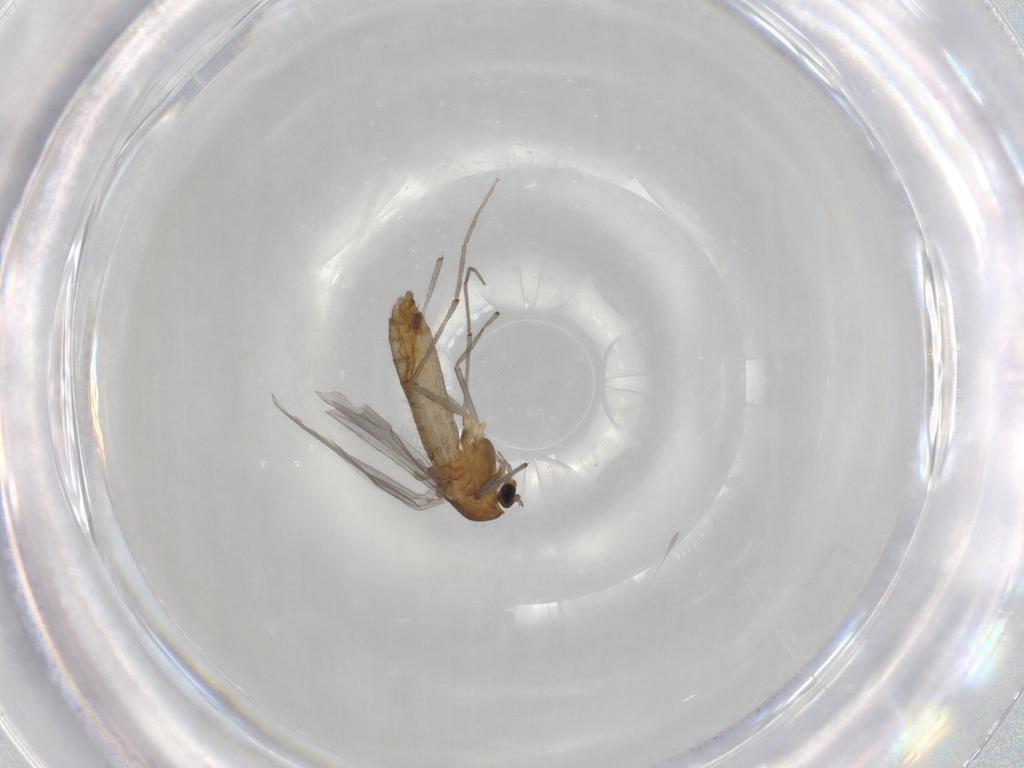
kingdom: Animalia
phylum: Arthropoda
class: Insecta
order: Diptera
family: Chironomidae
